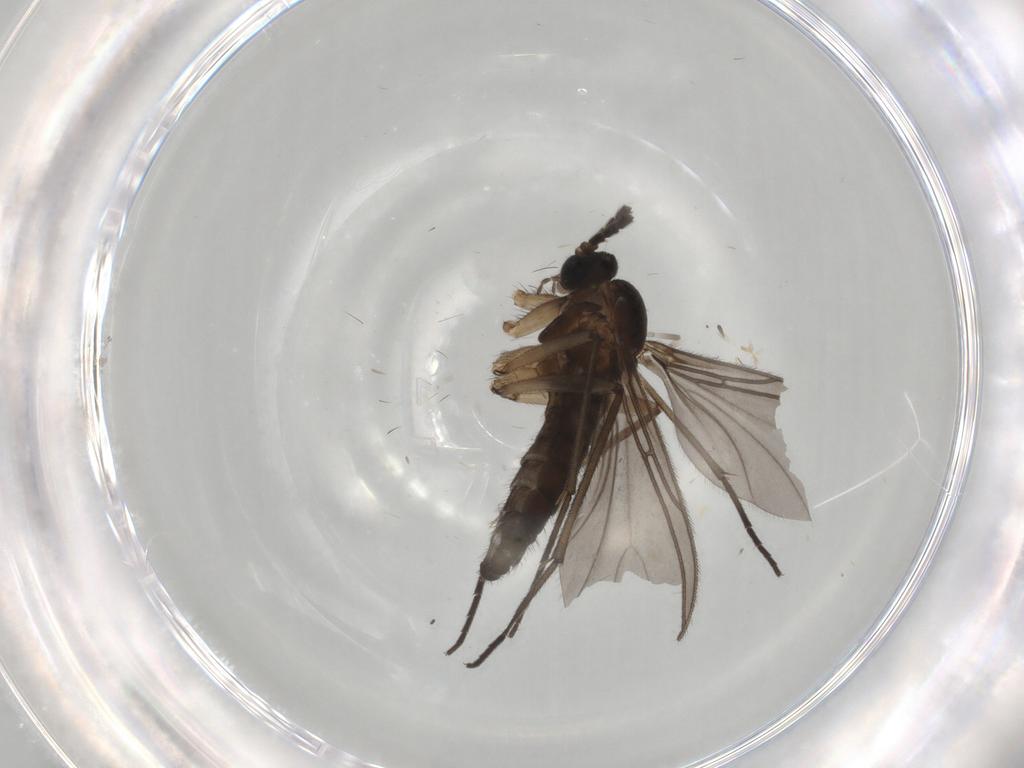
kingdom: Animalia
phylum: Arthropoda
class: Insecta
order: Diptera
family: Sciaridae
